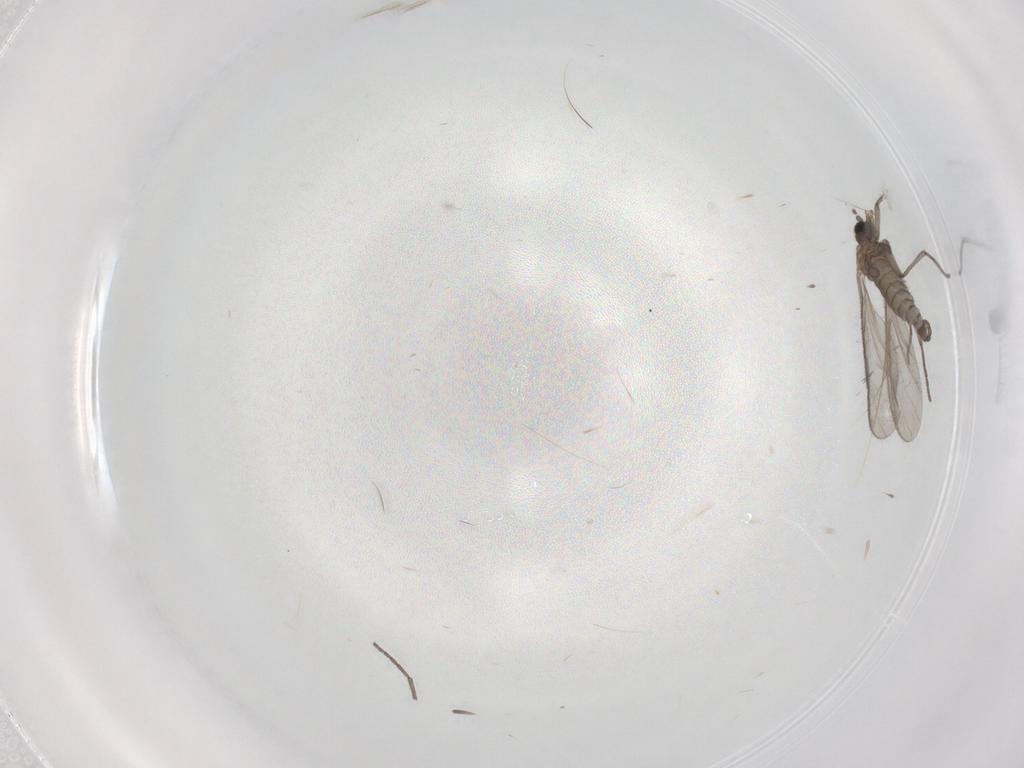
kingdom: Animalia
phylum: Arthropoda
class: Insecta
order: Diptera
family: Sciaridae
